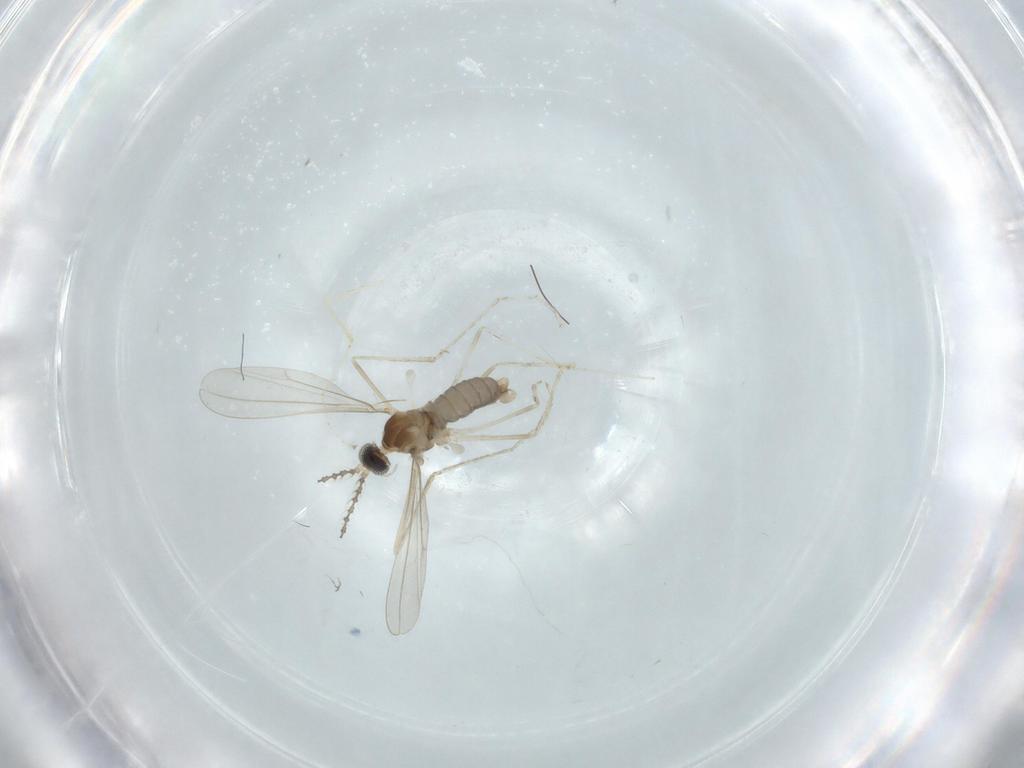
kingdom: Animalia
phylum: Arthropoda
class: Insecta
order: Diptera
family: Cecidomyiidae
